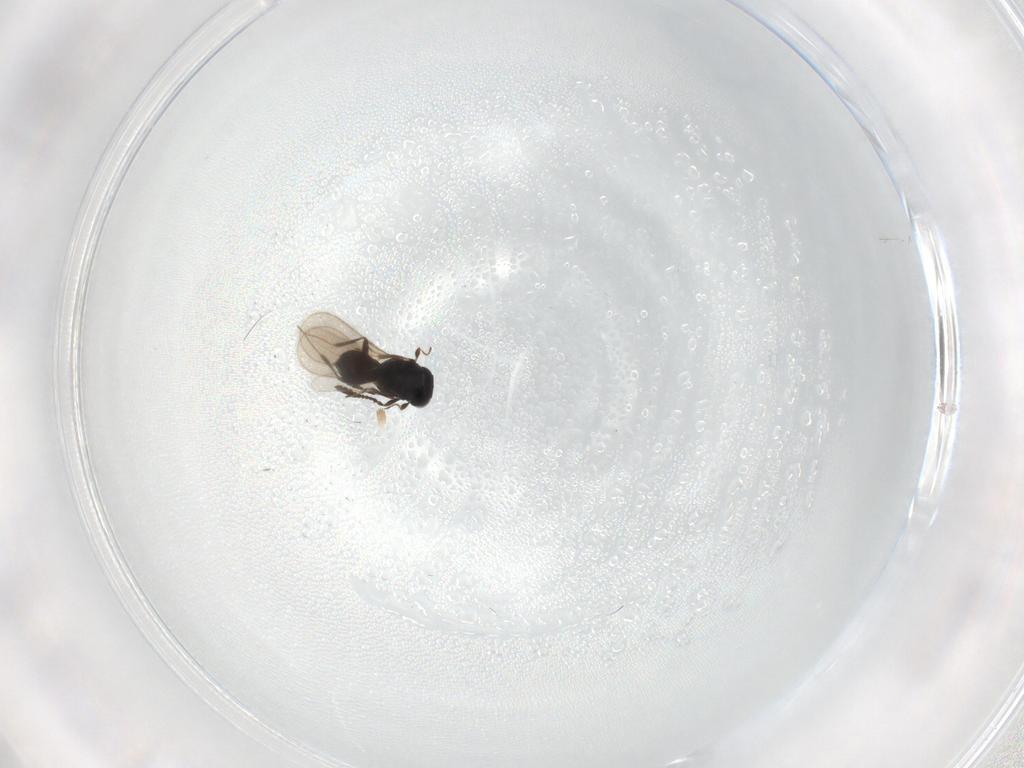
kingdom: Animalia
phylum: Arthropoda
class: Insecta
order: Hymenoptera
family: Scelionidae
